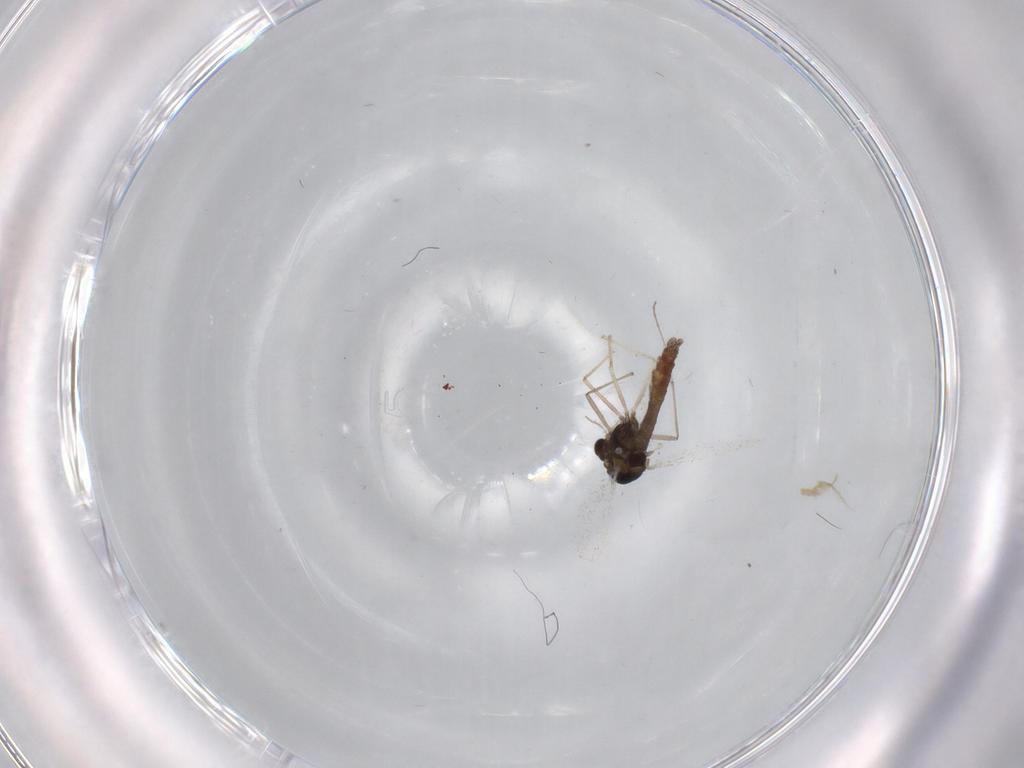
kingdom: Animalia
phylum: Arthropoda
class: Insecta
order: Diptera
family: Chironomidae
